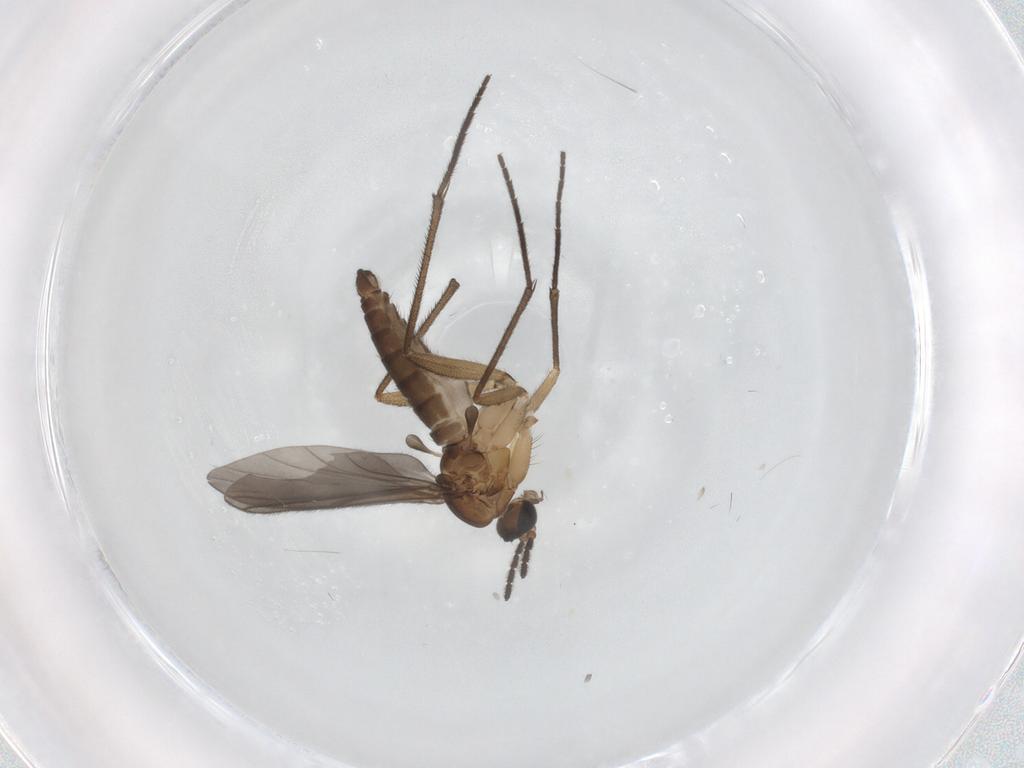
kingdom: Animalia
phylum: Arthropoda
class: Insecta
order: Diptera
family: Sciaridae
